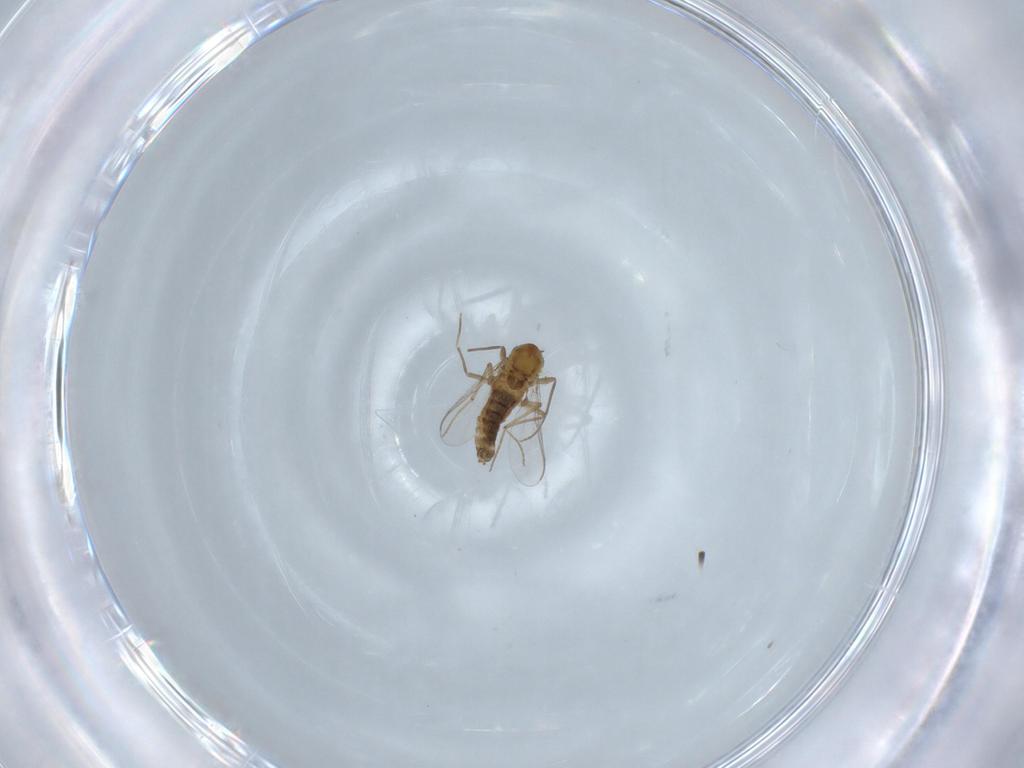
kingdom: Animalia
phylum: Arthropoda
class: Insecta
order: Diptera
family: Chironomidae
